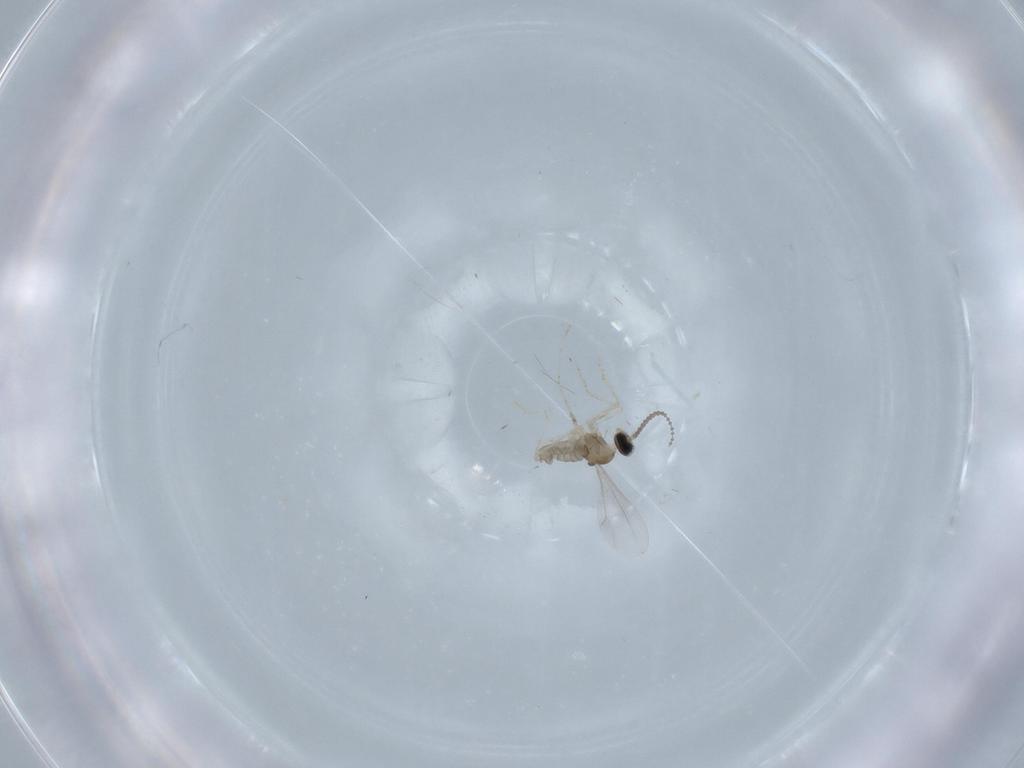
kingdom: Animalia
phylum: Arthropoda
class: Insecta
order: Diptera
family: Cecidomyiidae
